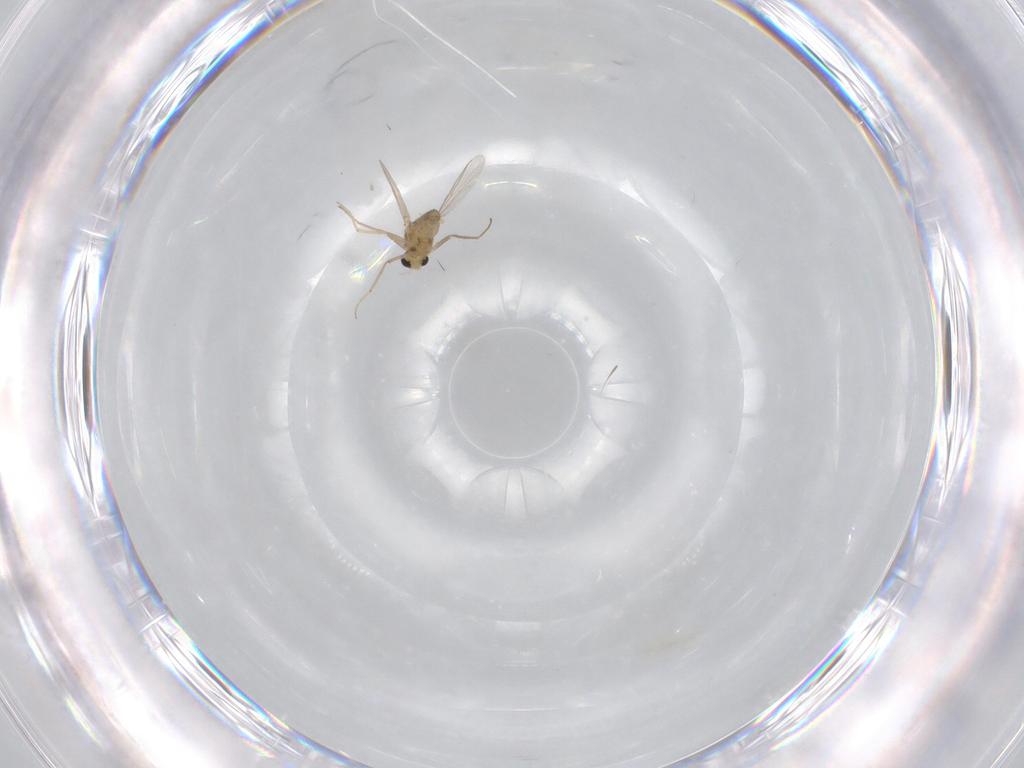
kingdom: Animalia
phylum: Arthropoda
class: Insecta
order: Diptera
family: Chironomidae
